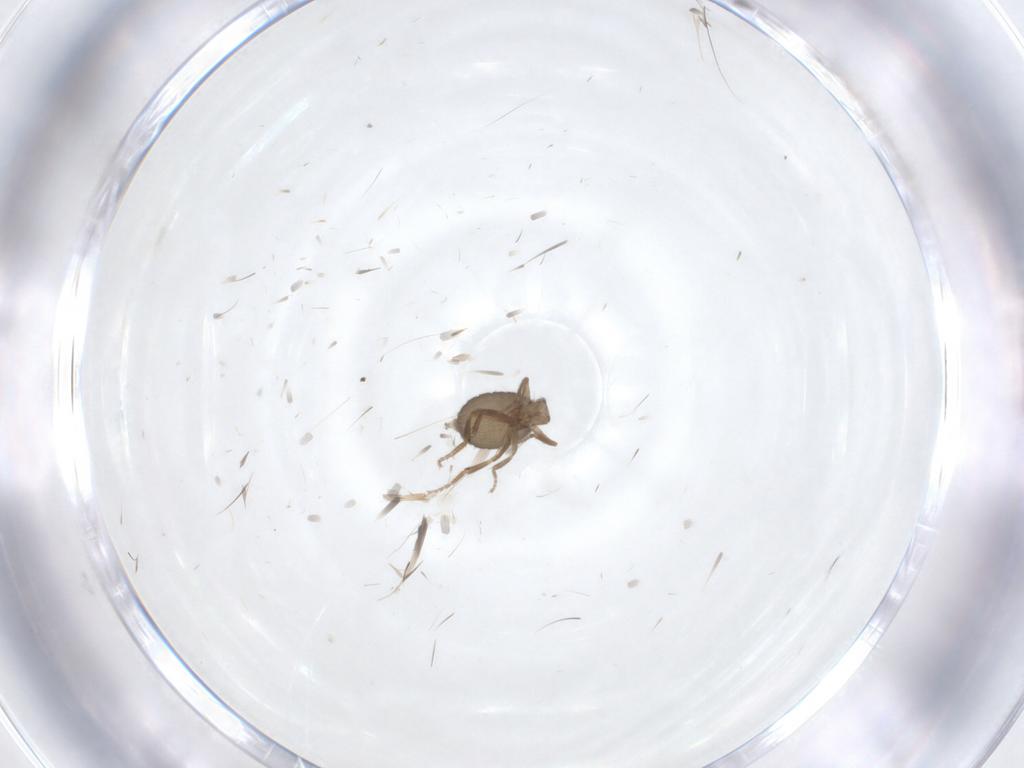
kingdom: Animalia
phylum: Arthropoda
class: Insecta
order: Diptera
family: Phoridae
